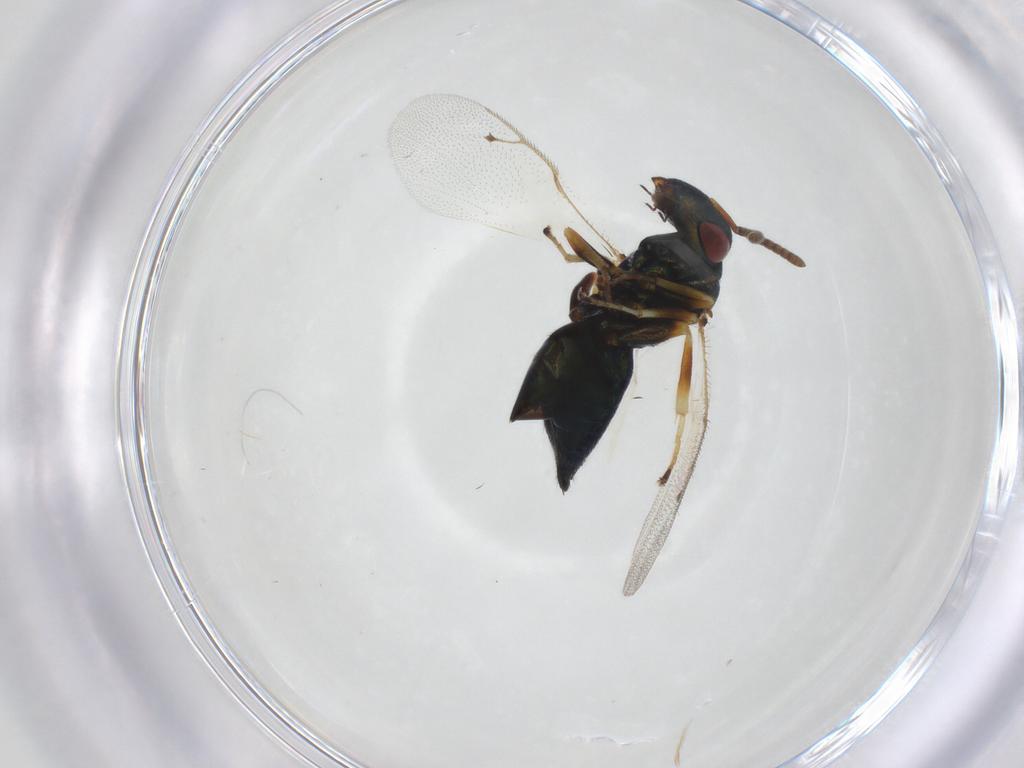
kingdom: Animalia
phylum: Arthropoda
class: Insecta
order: Hymenoptera
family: Pteromalidae
